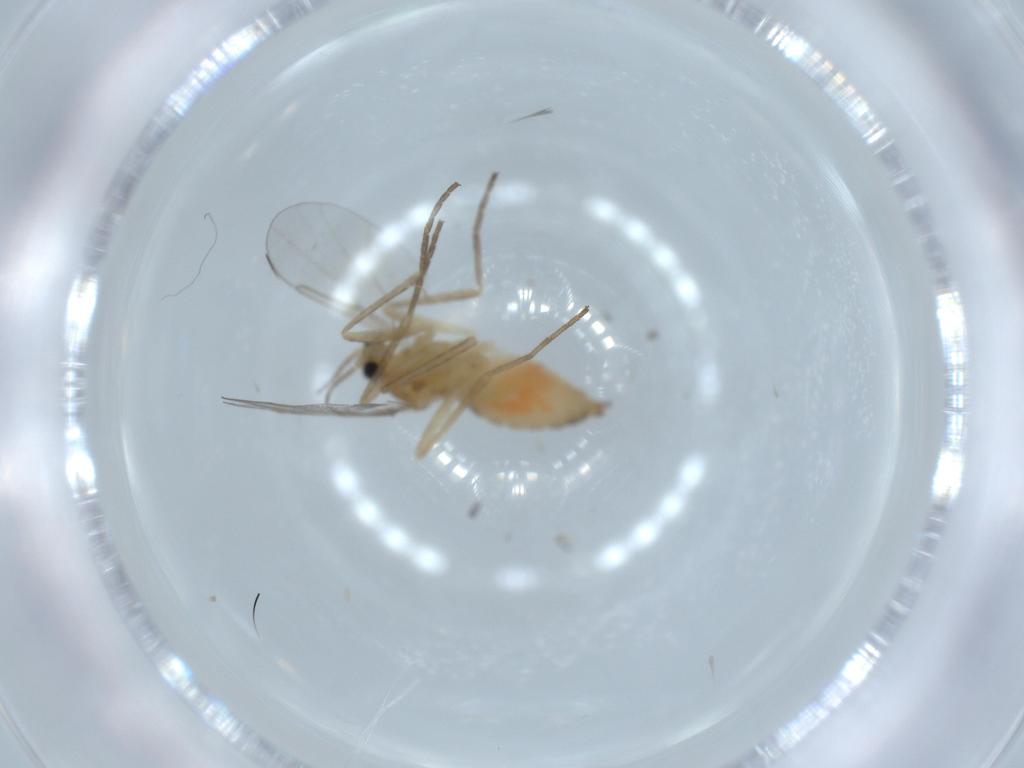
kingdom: Animalia
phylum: Arthropoda
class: Insecta
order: Diptera
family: Cecidomyiidae
